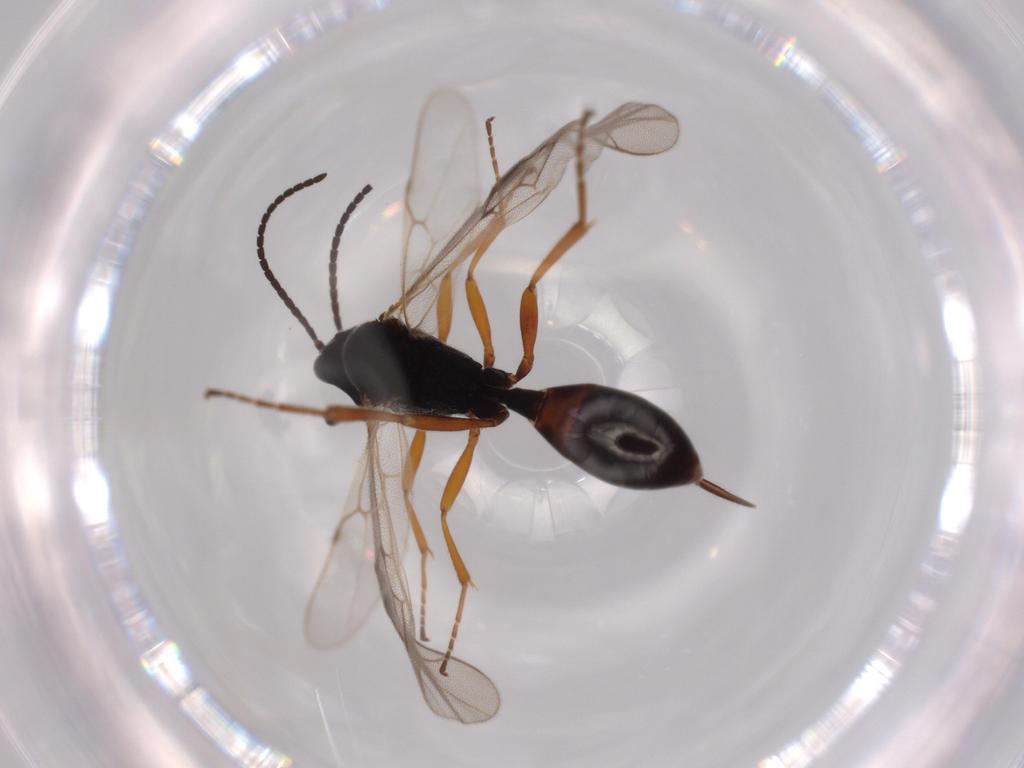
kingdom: Animalia
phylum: Arthropoda
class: Insecta
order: Hymenoptera
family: Ichneumonidae
